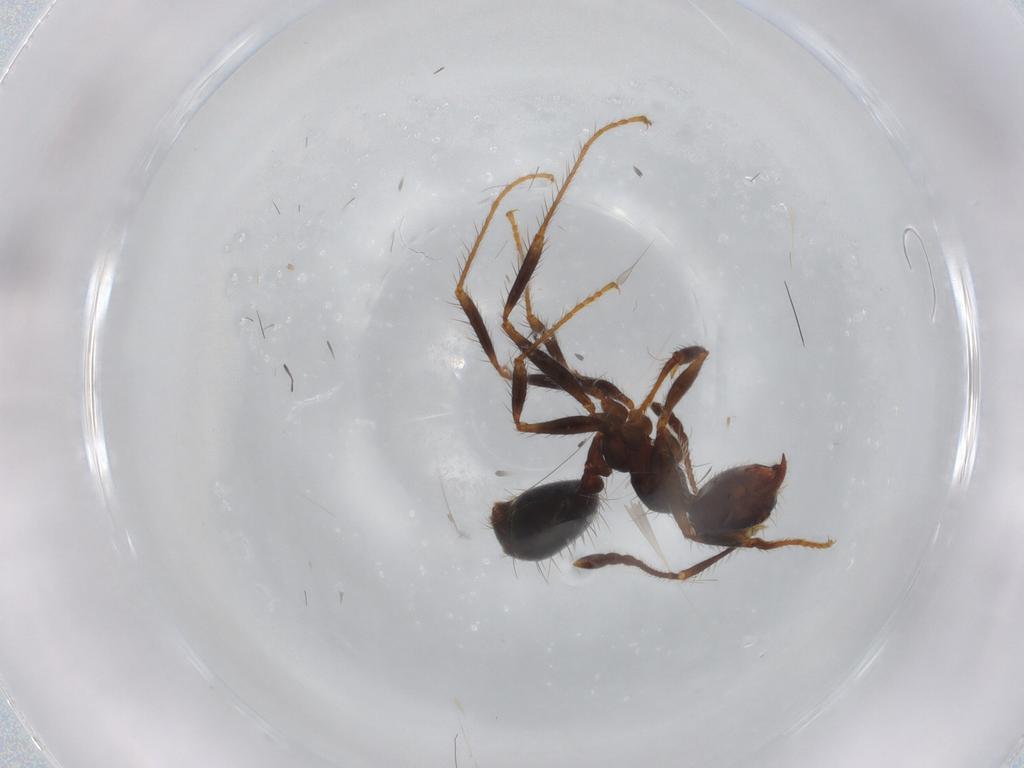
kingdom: Animalia
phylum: Arthropoda
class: Insecta
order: Hymenoptera
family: Formicidae
